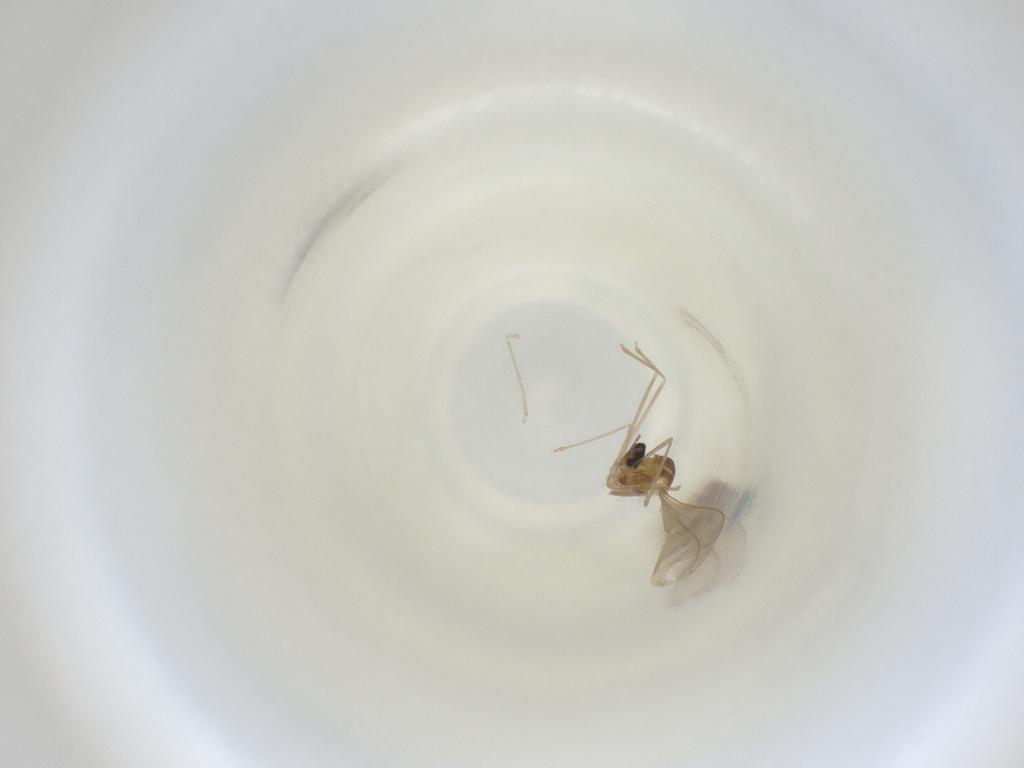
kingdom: Animalia
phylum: Arthropoda
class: Insecta
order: Diptera
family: Cecidomyiidae
